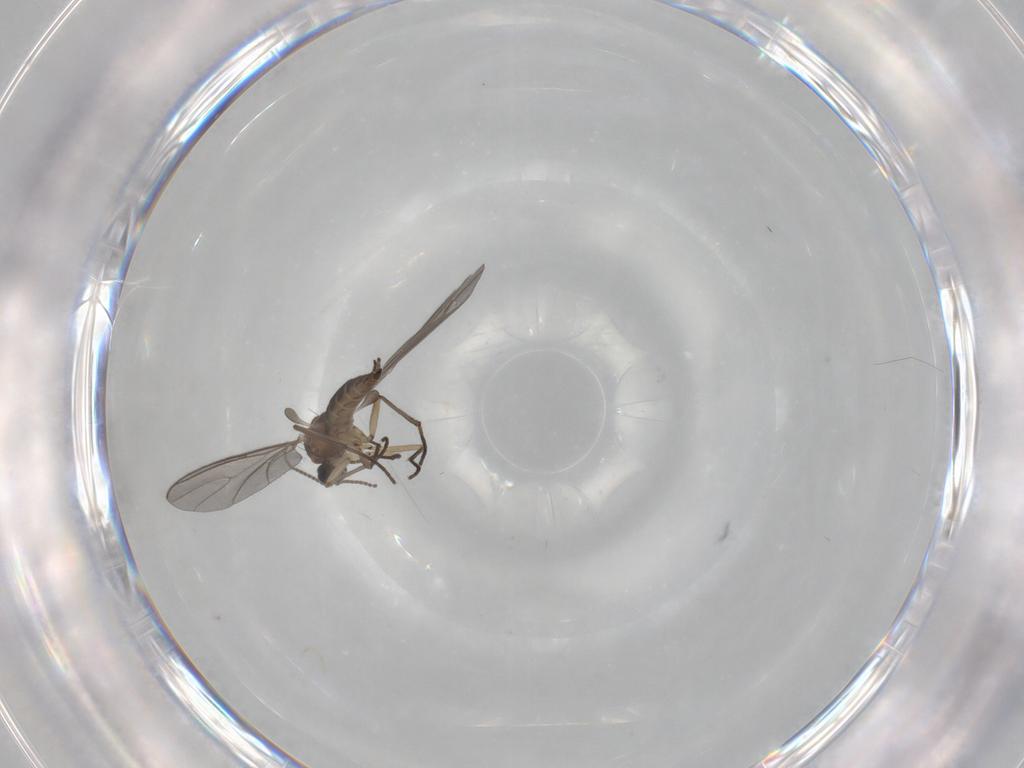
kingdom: Animalia
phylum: Arthropoda
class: Insecta
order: Diptera
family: Sciaridae
